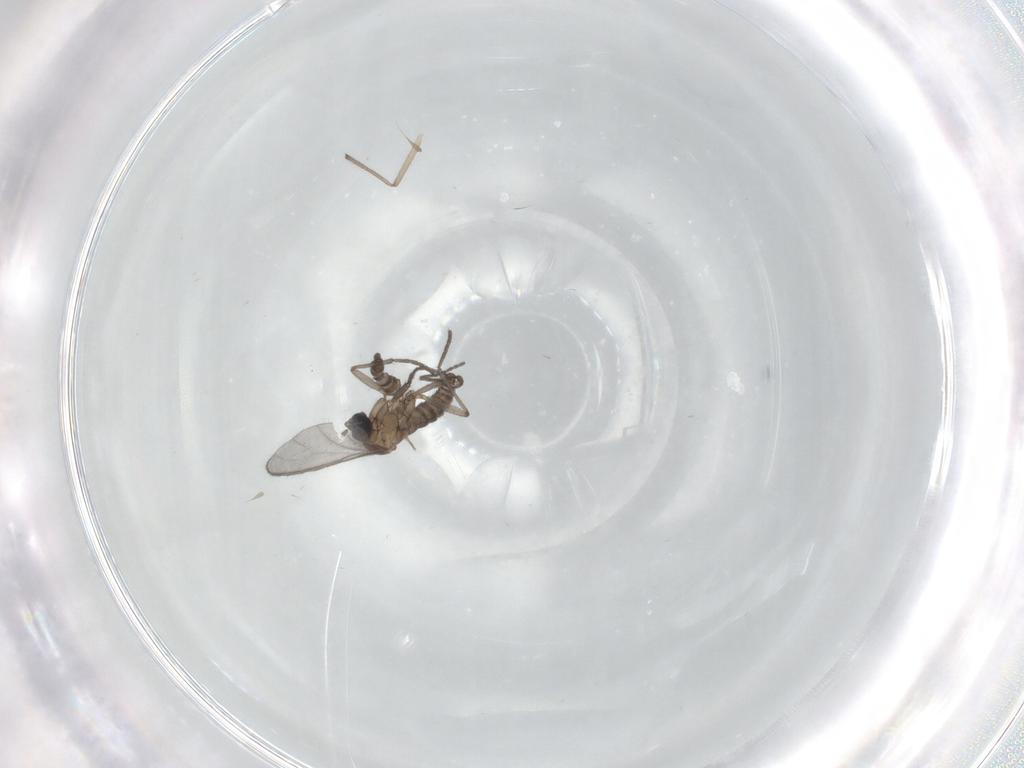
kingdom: Animalia
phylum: Arthropoda
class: Insecta
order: Diptera
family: Sciaridae
